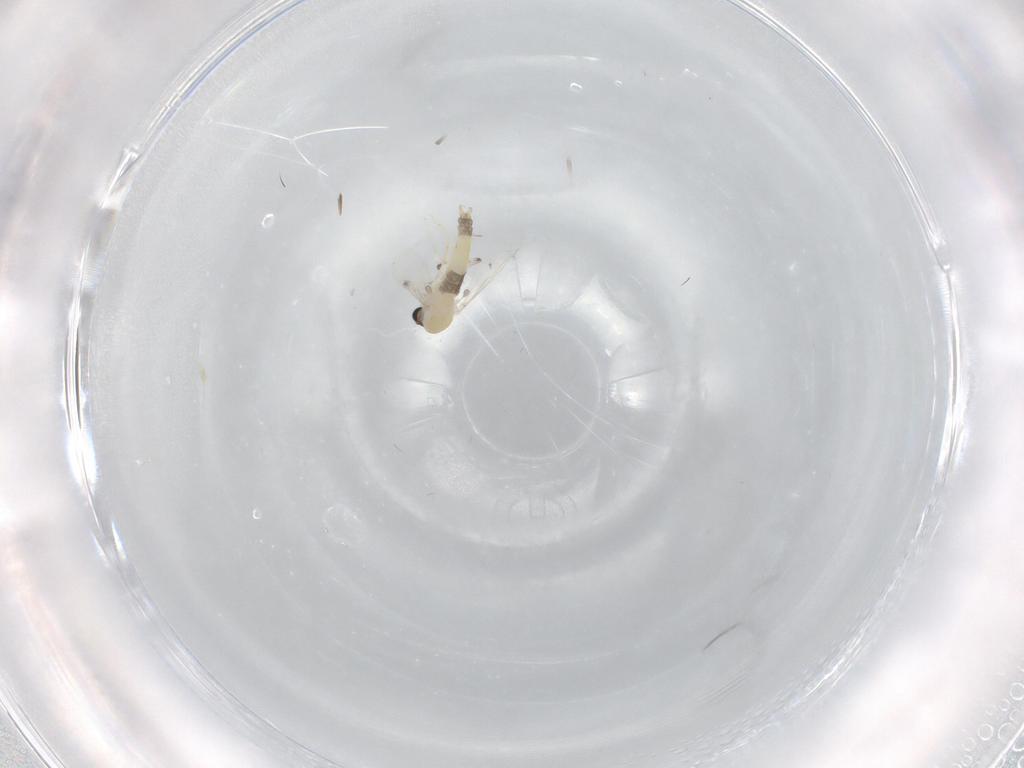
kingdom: Animalia
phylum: Arthropoda
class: Insecta
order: Diptera
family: Chironomidae
